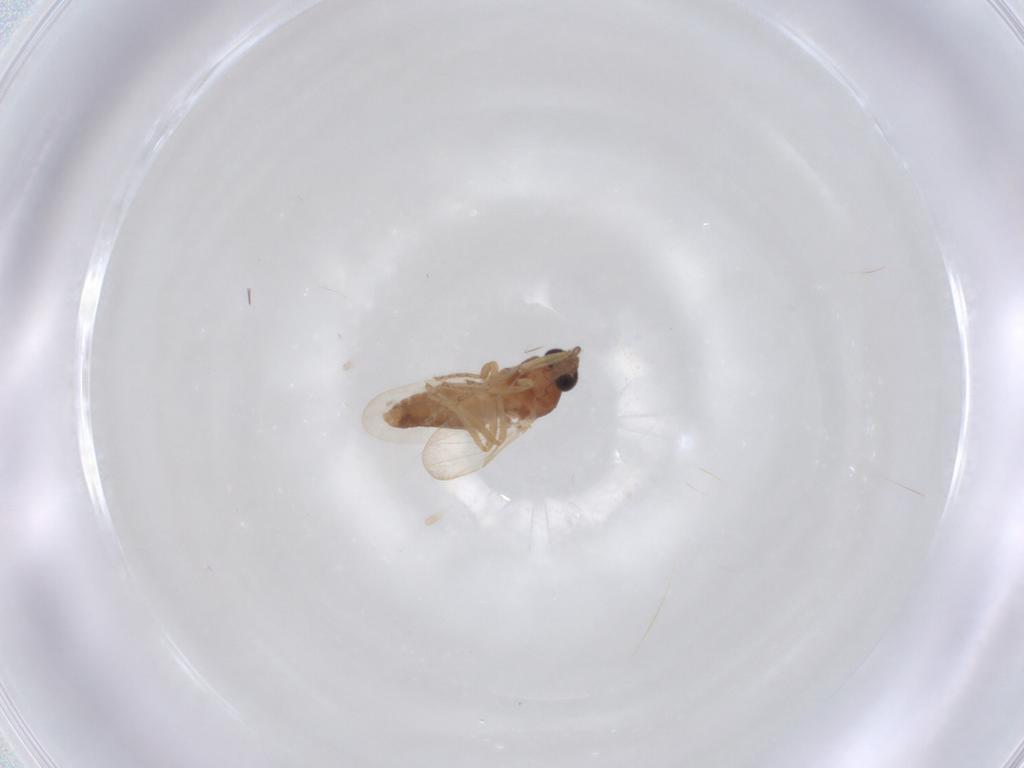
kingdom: Animalia
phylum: Arthropoda
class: Insecta
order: Diptera
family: Ceratopogonidae
